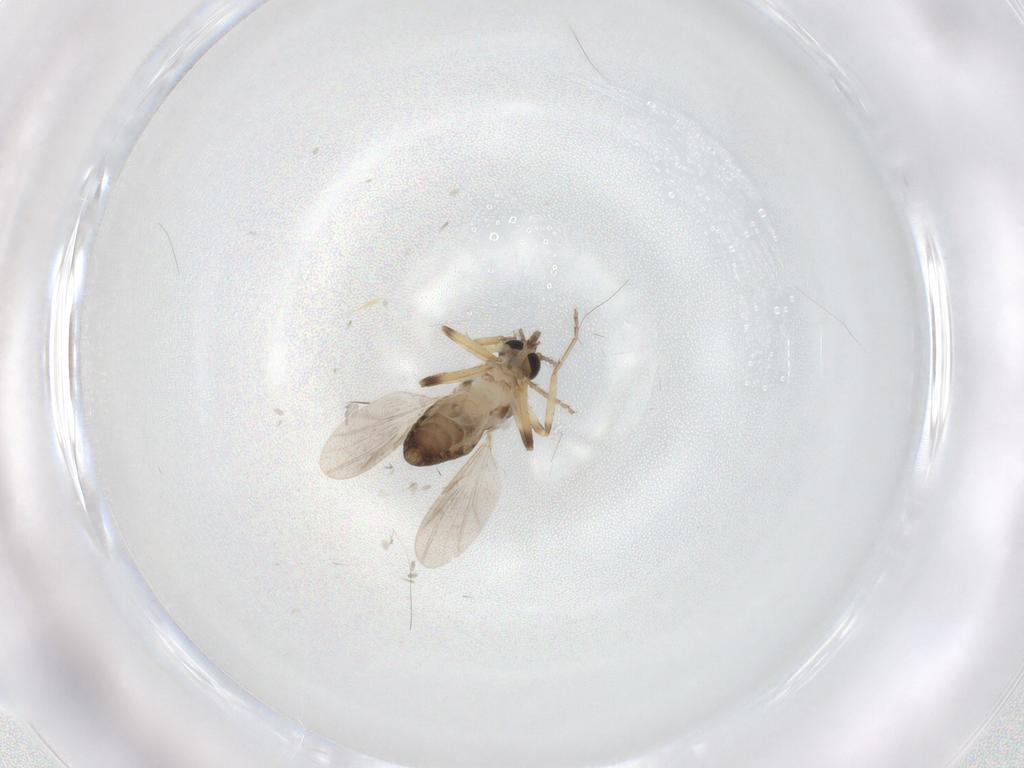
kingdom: Animalia
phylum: Arthropoda
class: Insecta
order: Diptera
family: Ceratopogonidae
